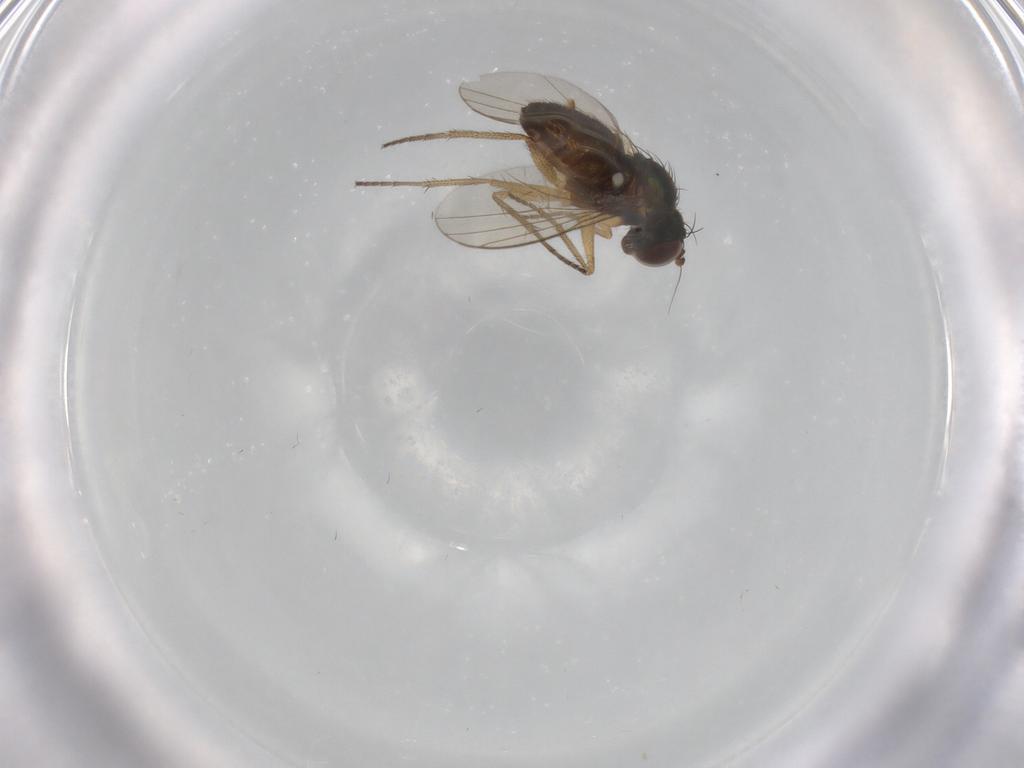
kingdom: Animalia
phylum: Arthropoda
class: Insecta
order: Diptera
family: Dolichopodidae
